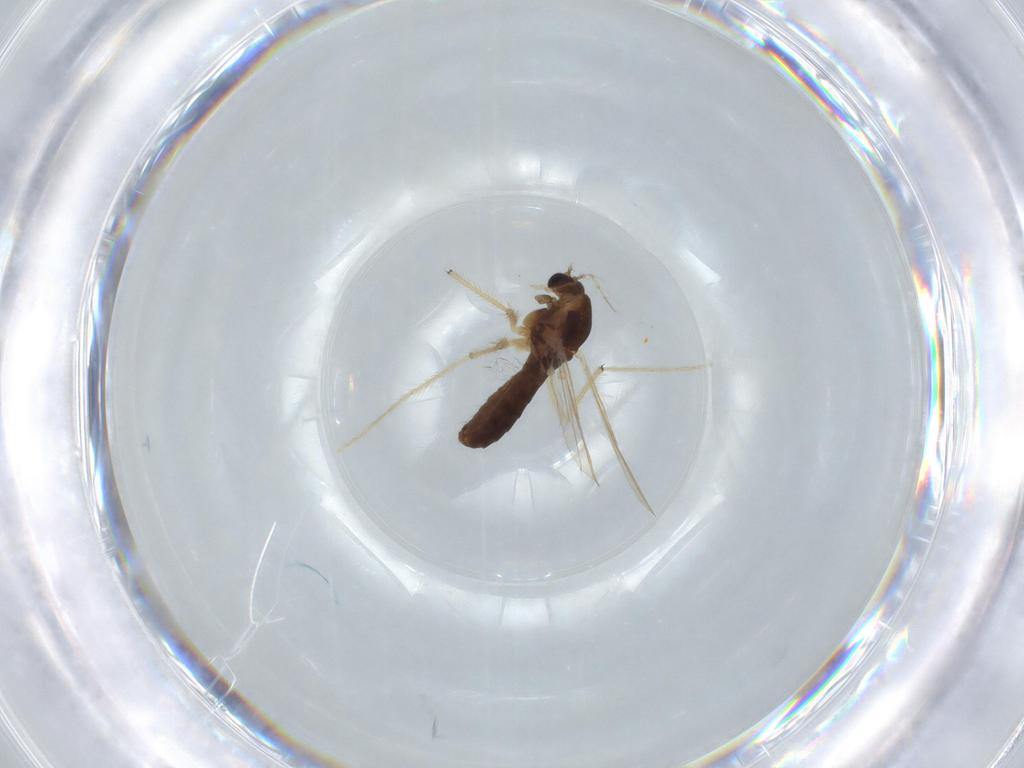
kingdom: Animalia
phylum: Arthropoda
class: Insecta
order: Diptera
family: Chironomidae
